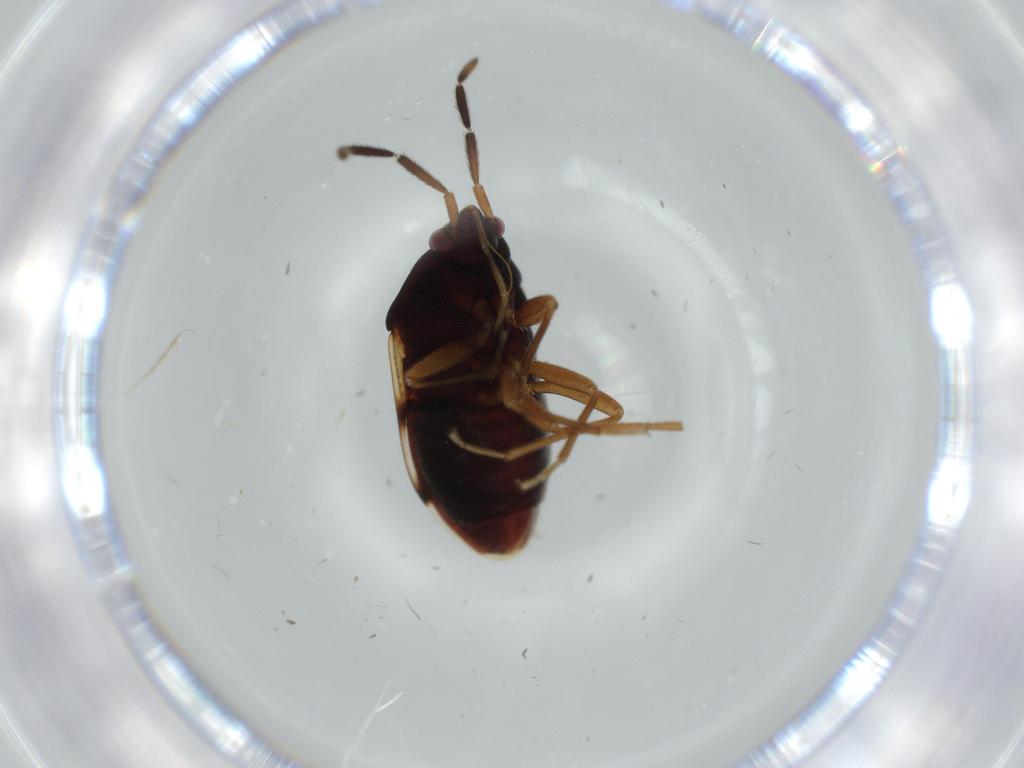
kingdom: Animalia
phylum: Arthropoda
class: Insecta
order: Hemiptera
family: Rhyparochromidae
